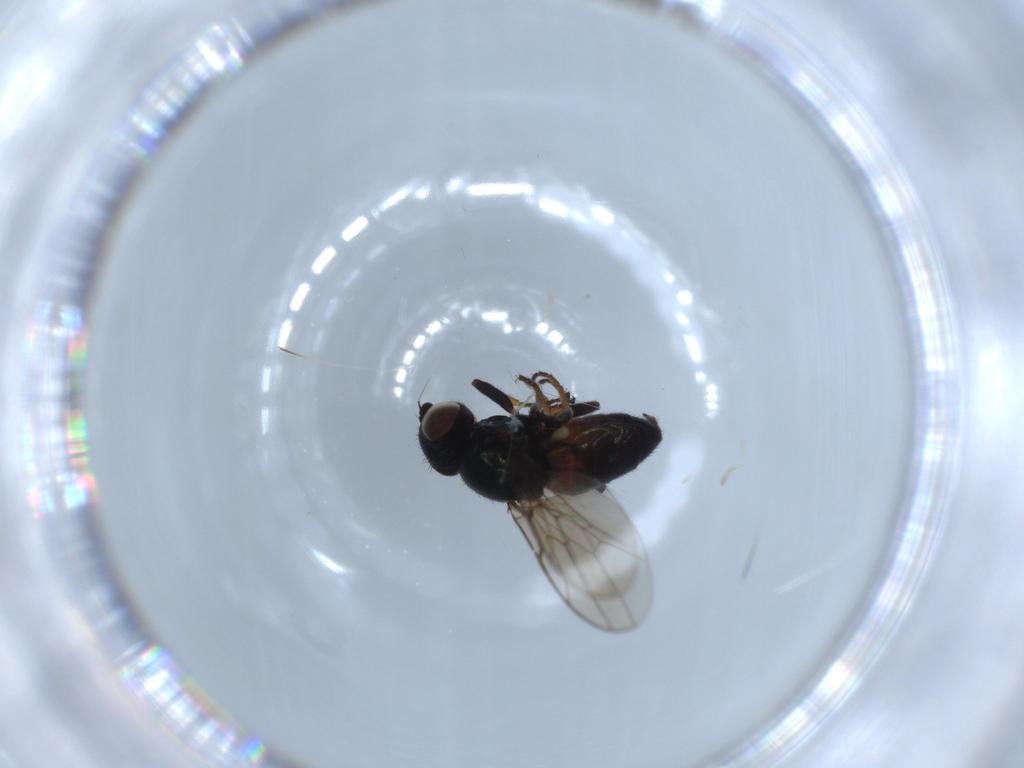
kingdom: Animalia
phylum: Arthropoda
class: Insecta
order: Diptera
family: Chloropidae
